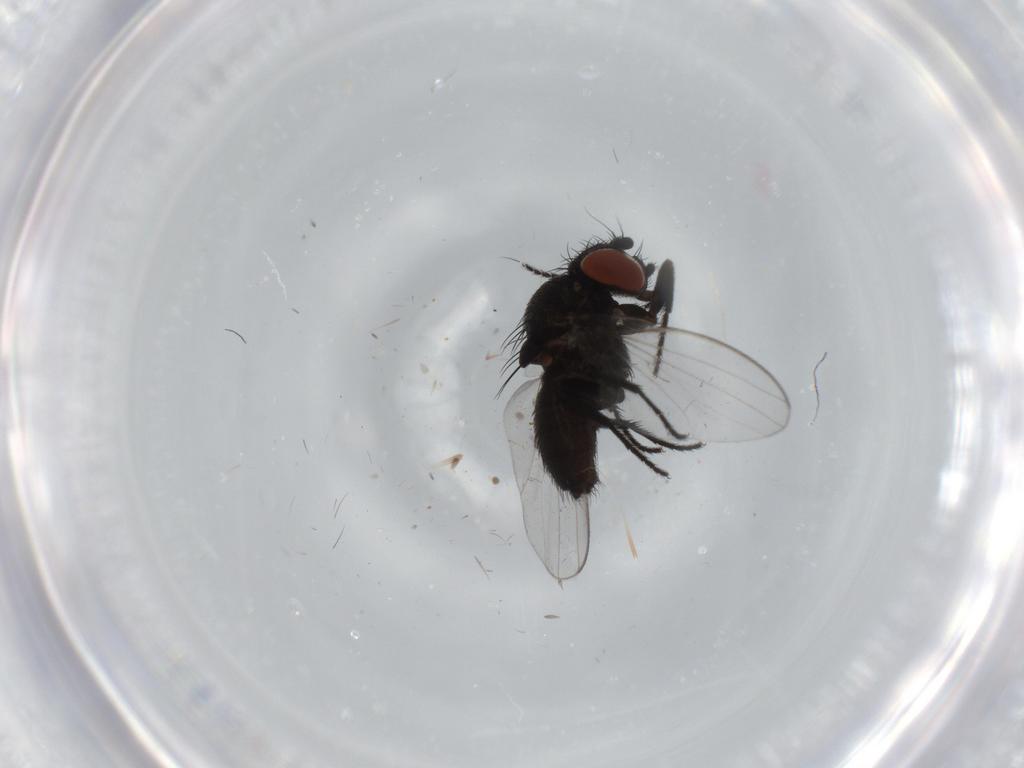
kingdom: Animalia
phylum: Arthropoda
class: Insecta
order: Diptera
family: Milichiidae
